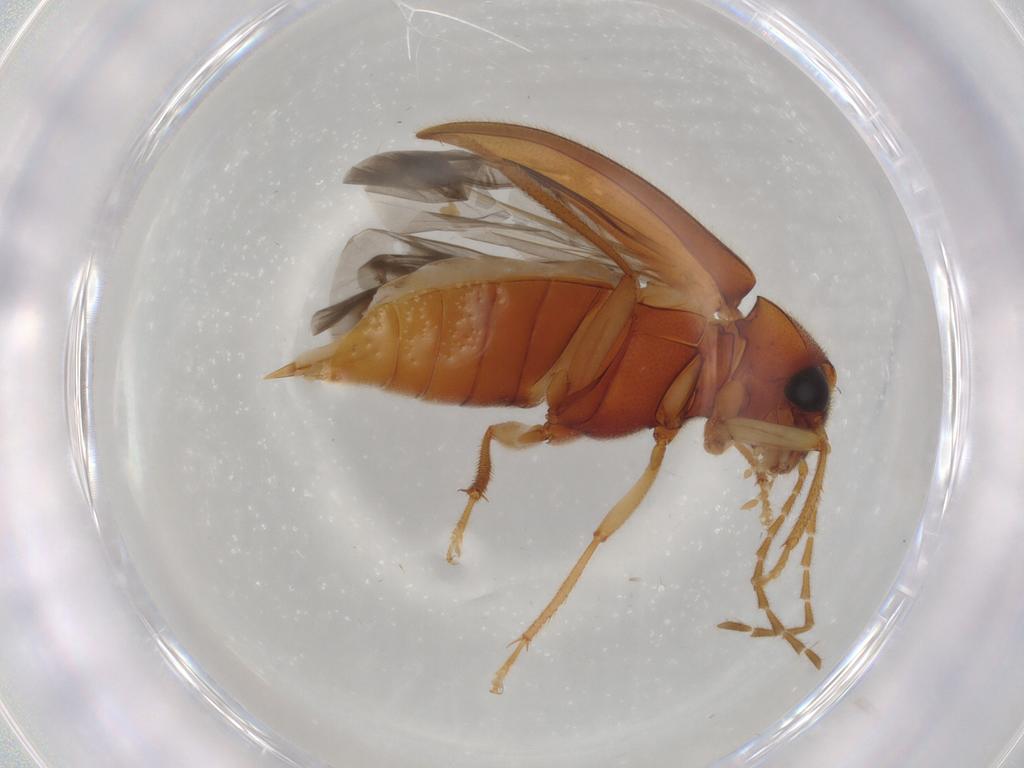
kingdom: Animalia
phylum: Arthropoda
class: Insecta
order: Coleoptera
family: Ptilodactylidae
